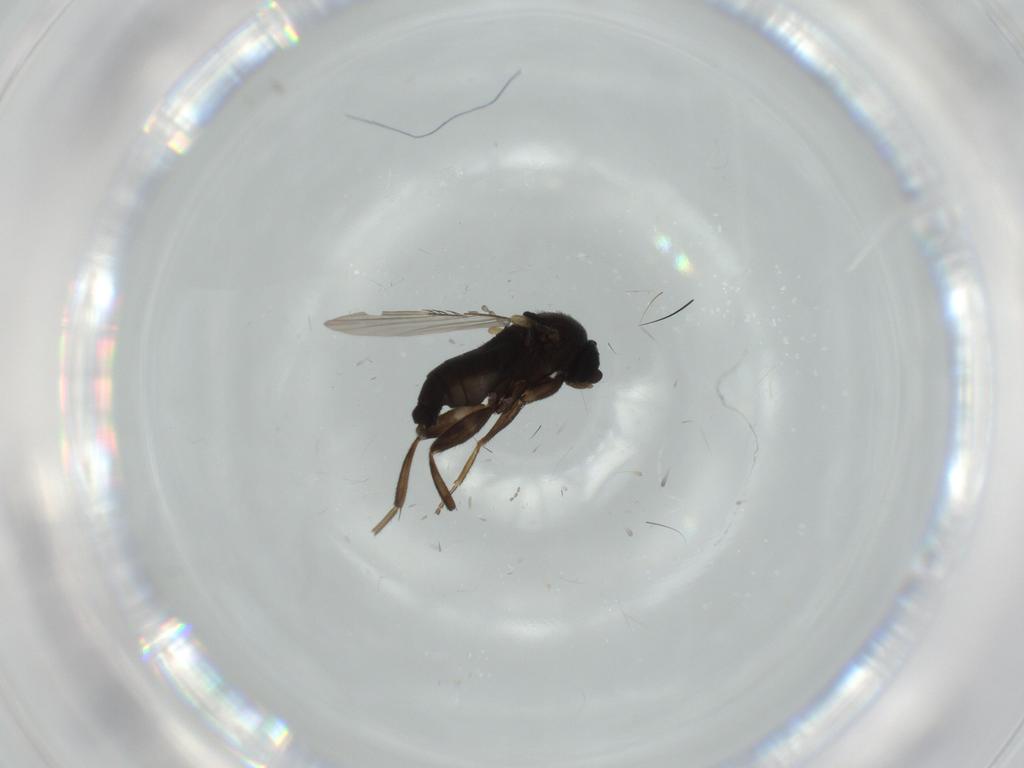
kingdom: Animalia
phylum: Arthropoda
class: Insecta
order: Diptera
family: Phoridae
